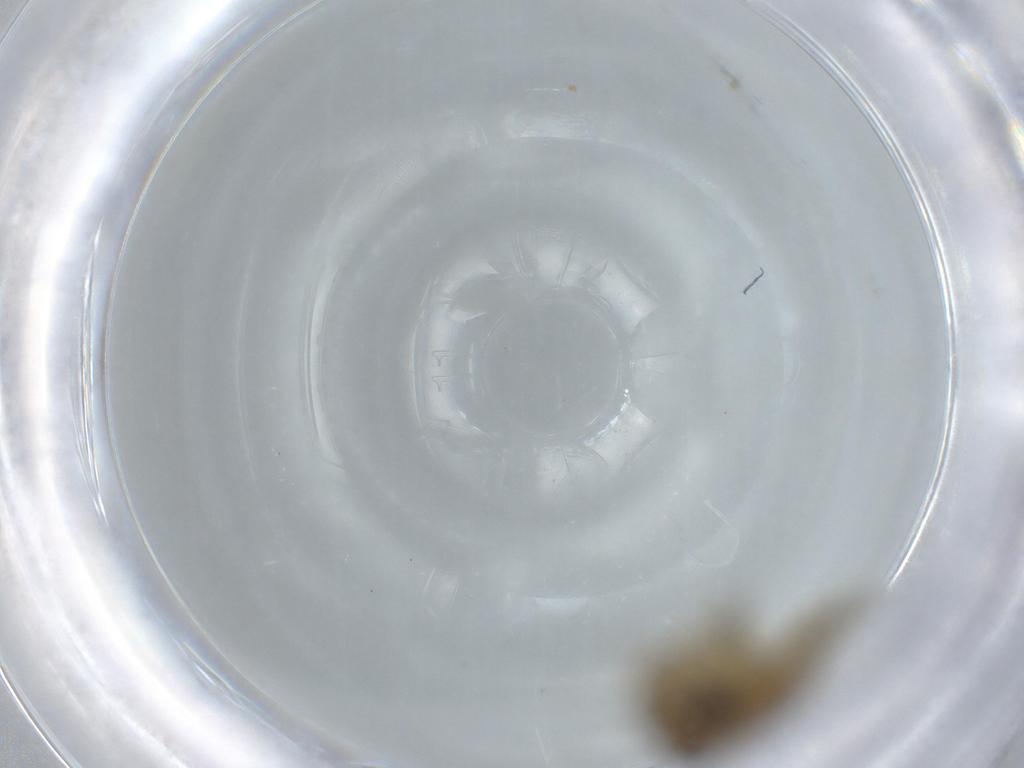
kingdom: Animalia
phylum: Arthropoda
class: Insecta
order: Ephemeroptera
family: Baetidae
